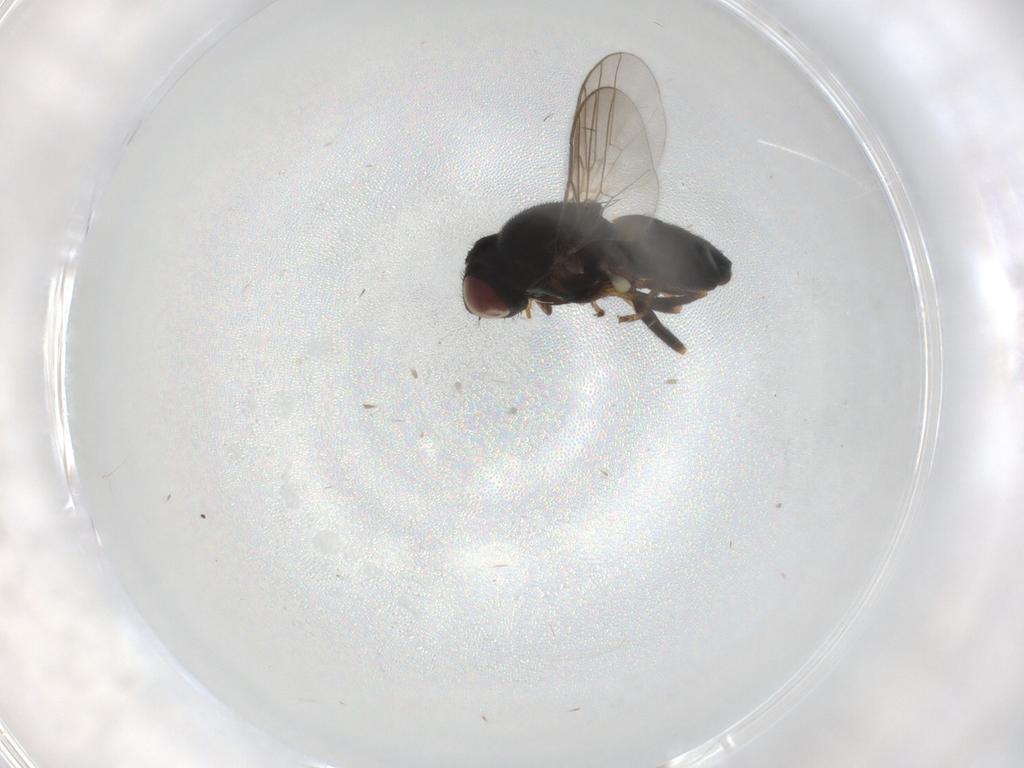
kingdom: Animalia
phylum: Arthropoda
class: Insecta
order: Diptera
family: Chloropidae
